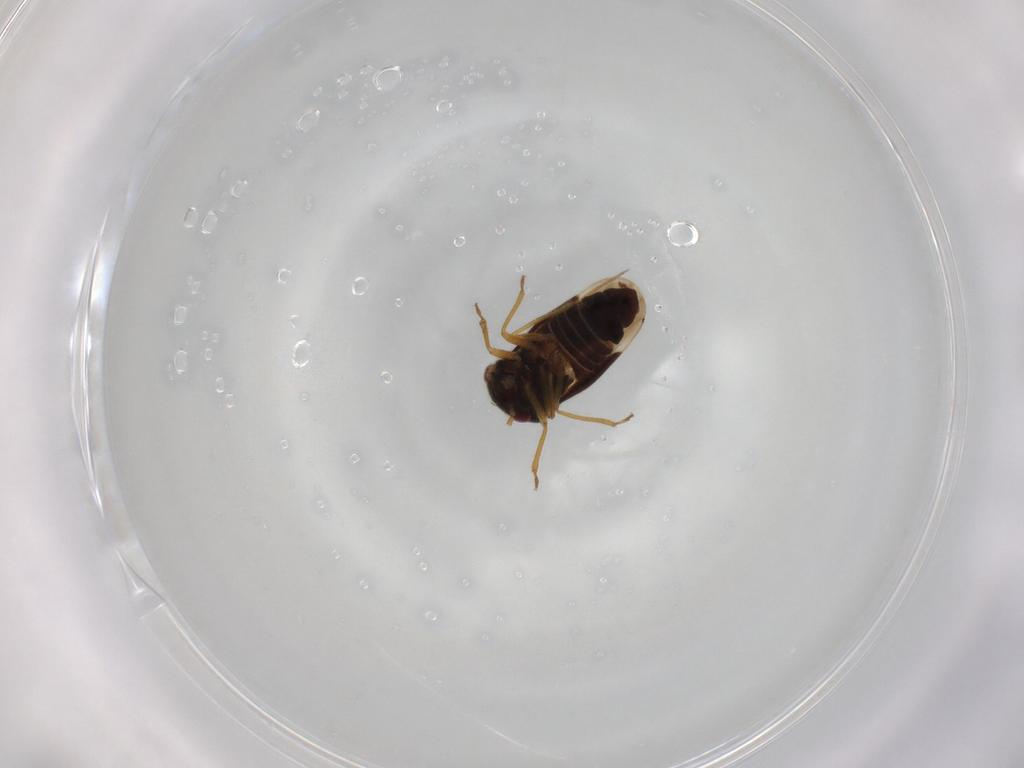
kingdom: Animalia
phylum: Arthropoda
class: Insecta
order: Hemiptera
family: Schizopteridae
